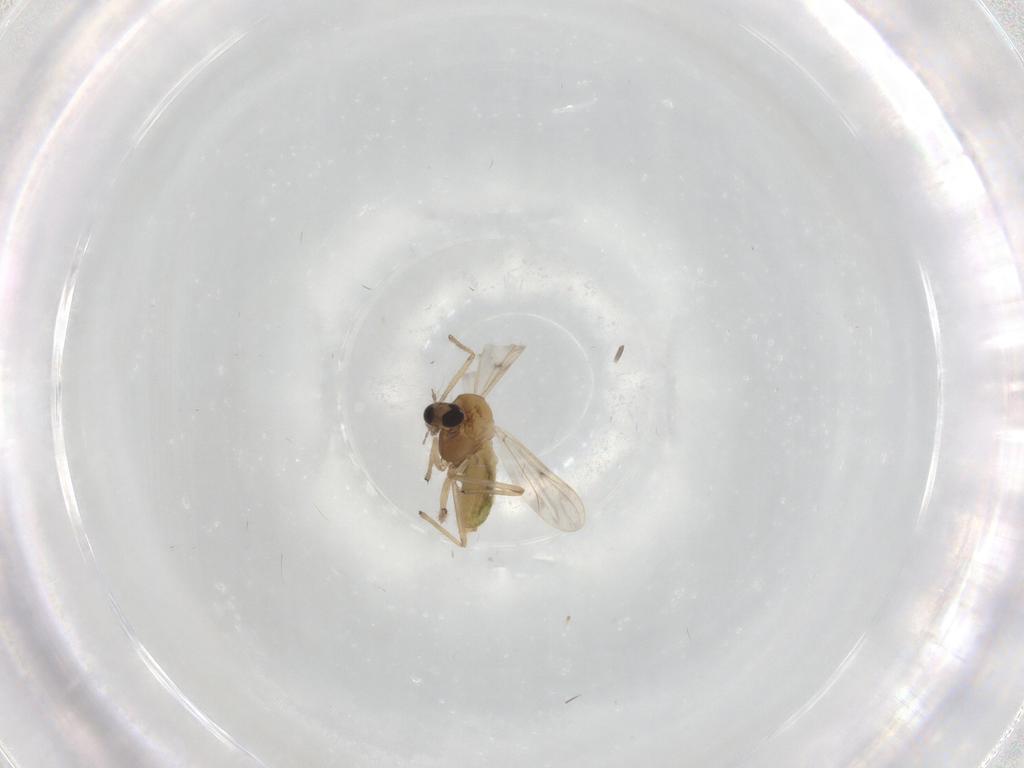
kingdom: Animalia
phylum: Arthropoda
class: Insecta
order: Diptera
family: Chironomidae
